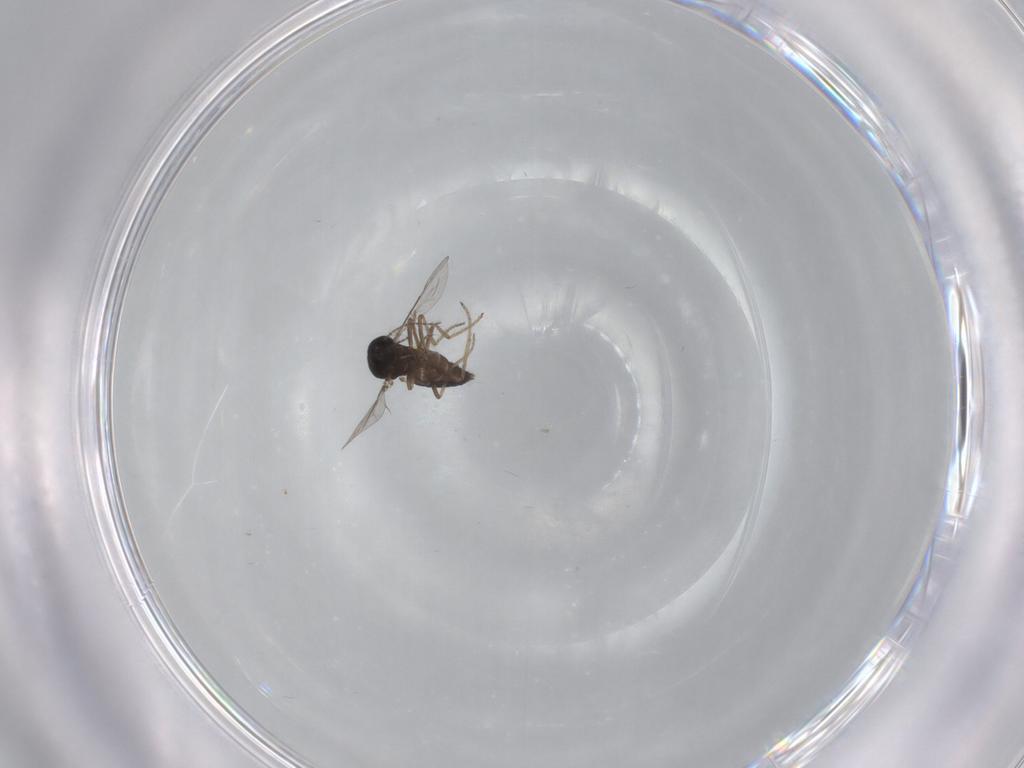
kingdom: Animalia
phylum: Arthropoda
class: Insecta
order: Diptera
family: Ceratopogonidae
